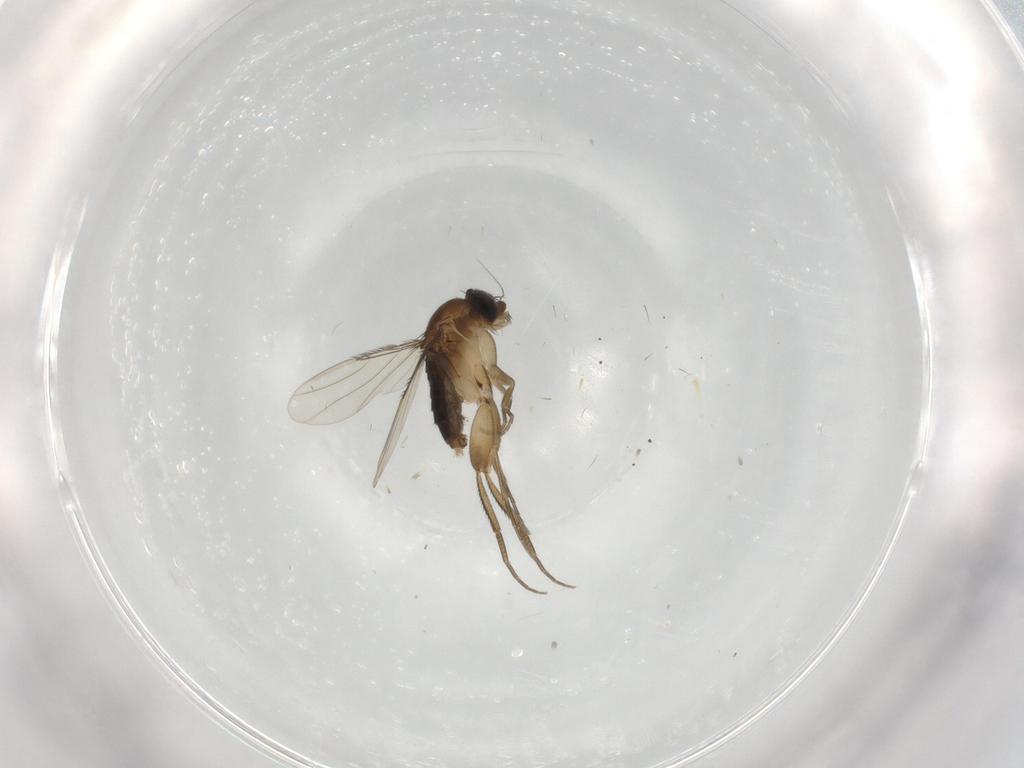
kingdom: Animalia
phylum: Arthropoda
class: Insecta
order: Diptera
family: Phoridae
